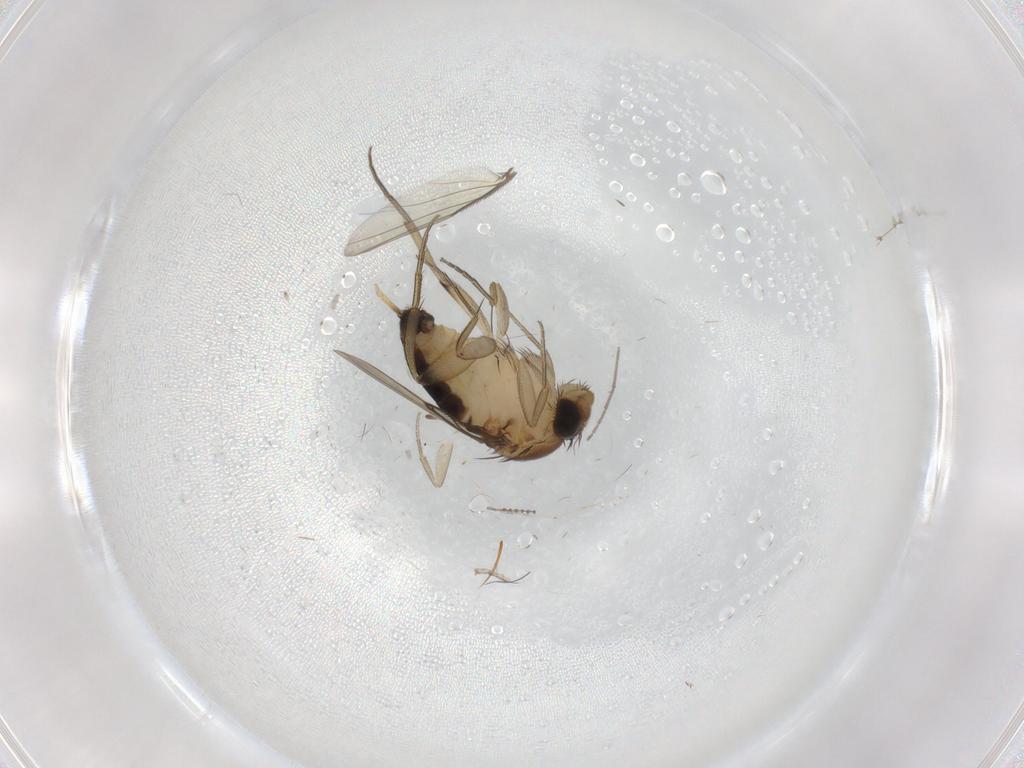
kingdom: Animalia
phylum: Arthropoda
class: Insecta
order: Diptera
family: Phoridae
